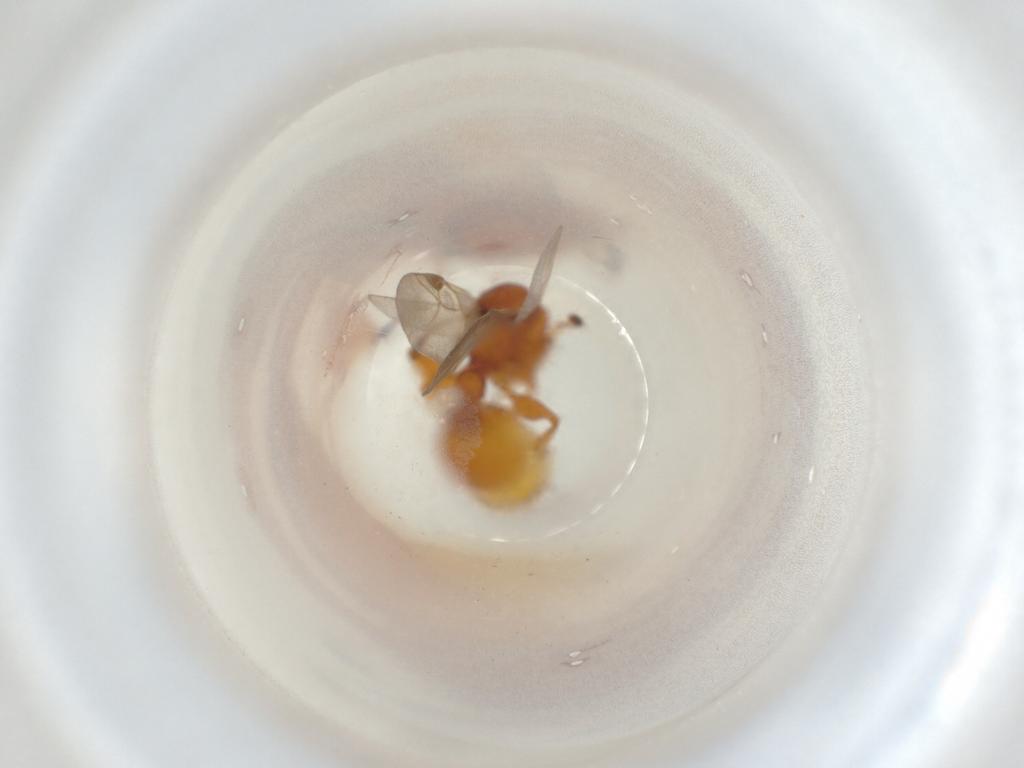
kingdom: Animalia
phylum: Arthropoda
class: Insecta
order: Hymenoptera
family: Formicidae
